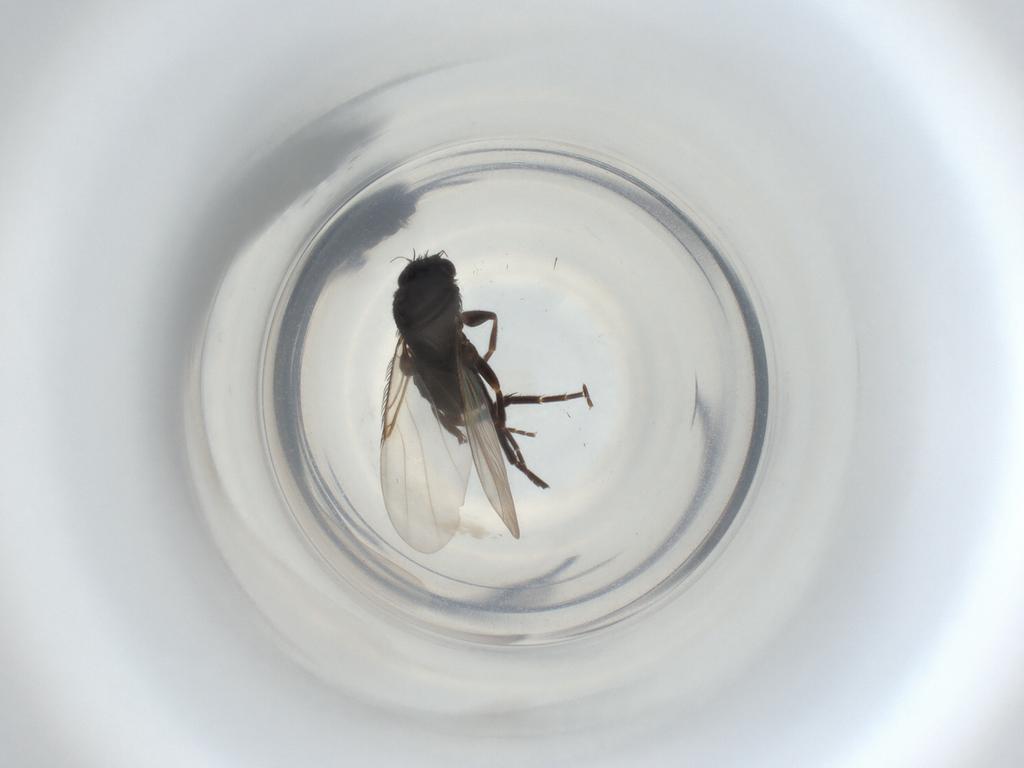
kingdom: Animalia
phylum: Arthropoda
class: Insecta
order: Diptera
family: Phoridae
